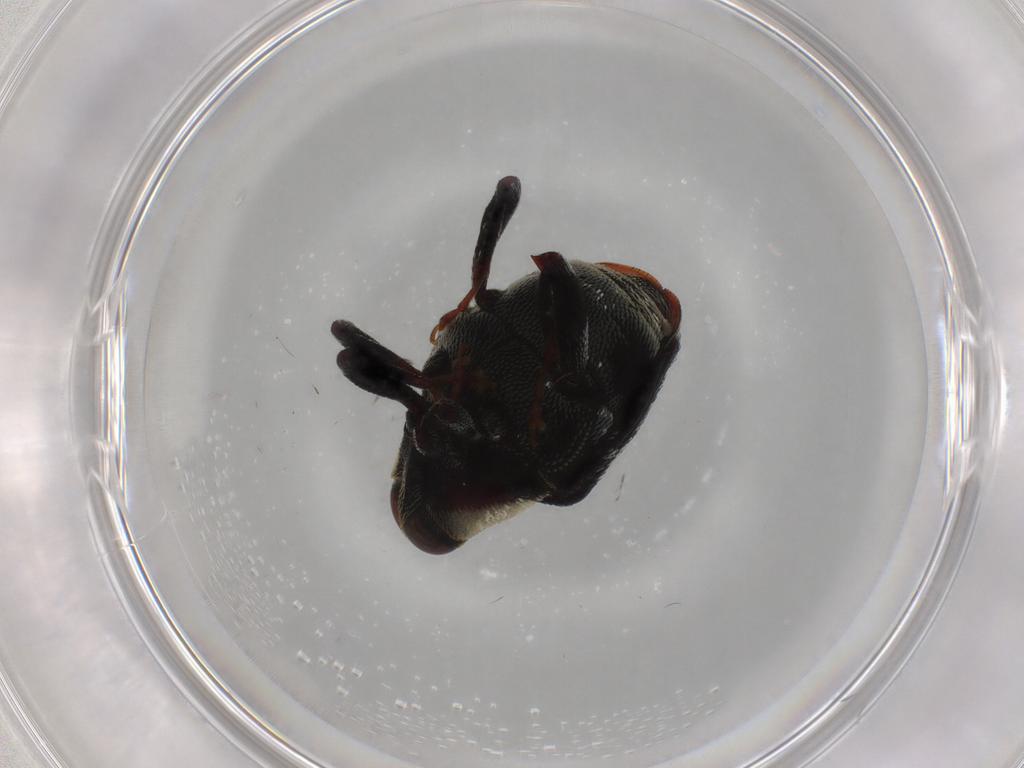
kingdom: Animalia
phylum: Arthropoda
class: Insecta
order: Coleoptera
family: Curculionidae
